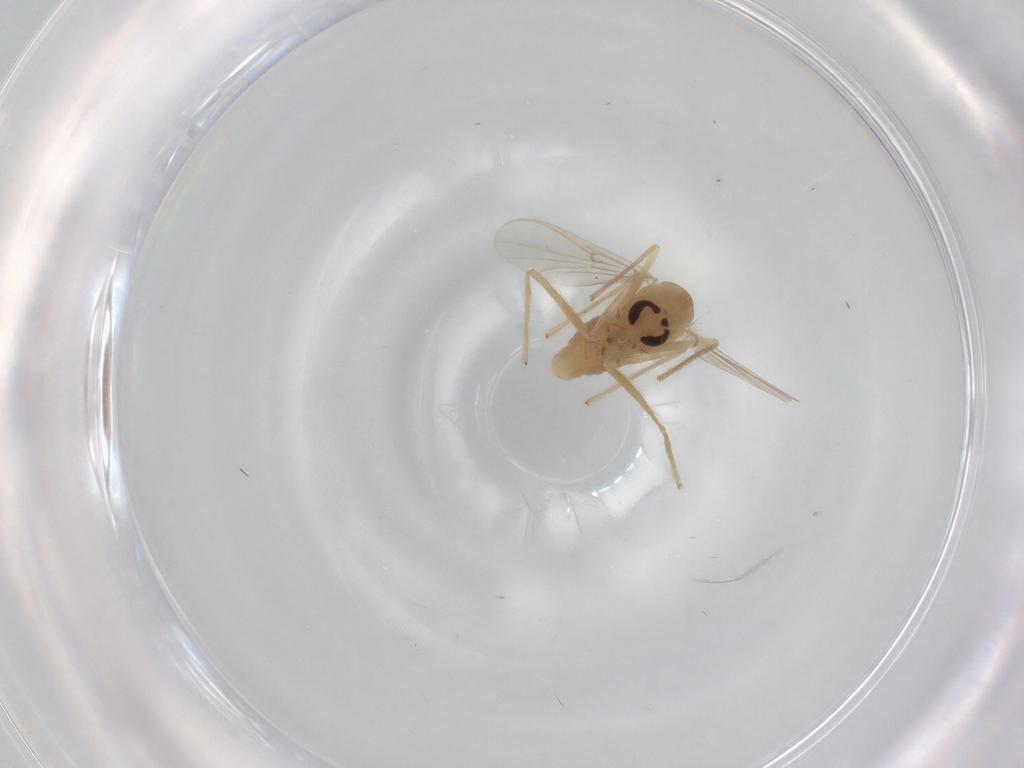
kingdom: Animalia
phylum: Arthropoda
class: Insecta
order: Diptera
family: Chironomidae
